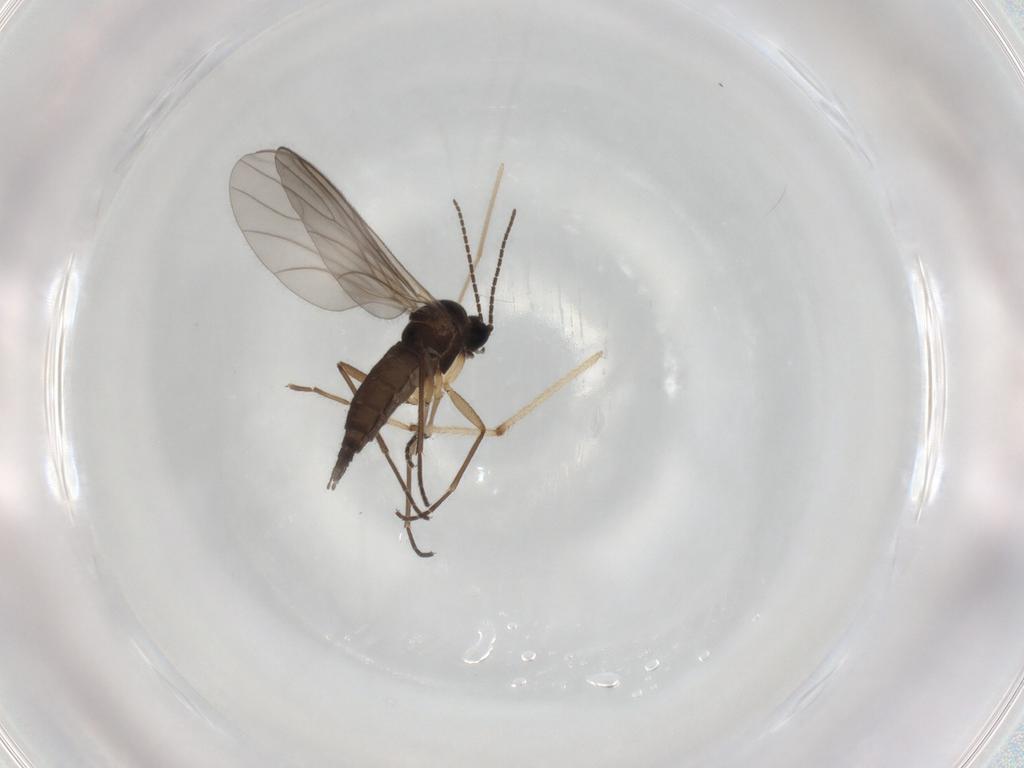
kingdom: Animalia
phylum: Arthropoda
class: Insecta
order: Diptera
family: Sciaridae
